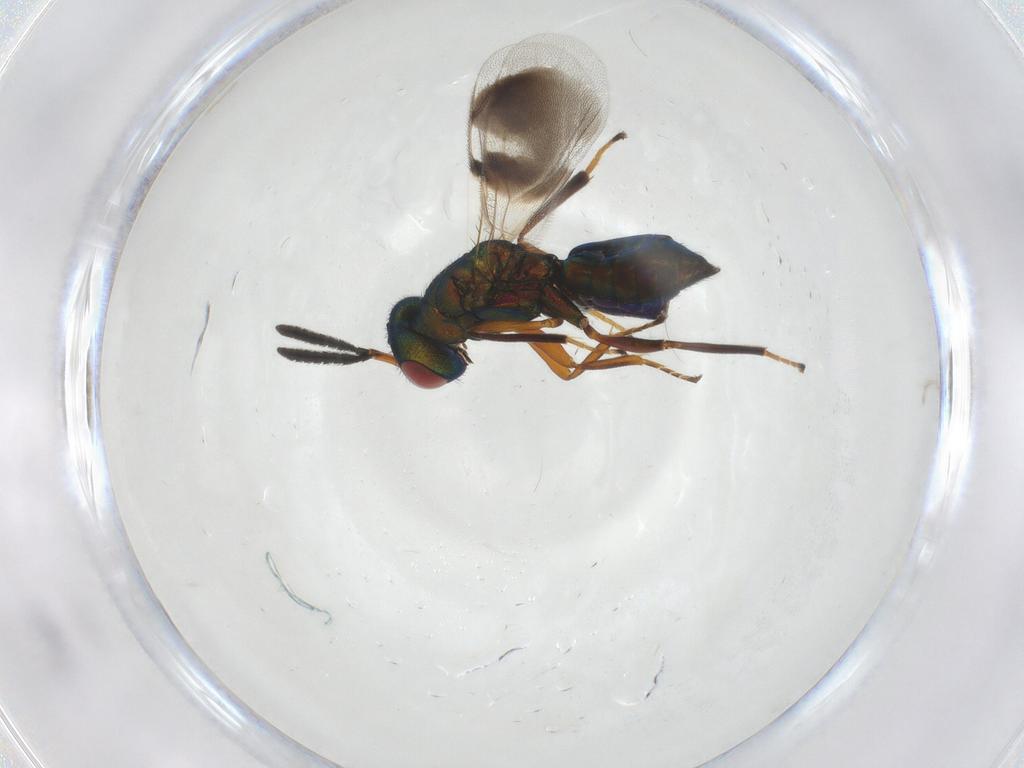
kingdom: Animalia
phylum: Arthropoda
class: Insecta
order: Hymenoptera
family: Pteromalidae
